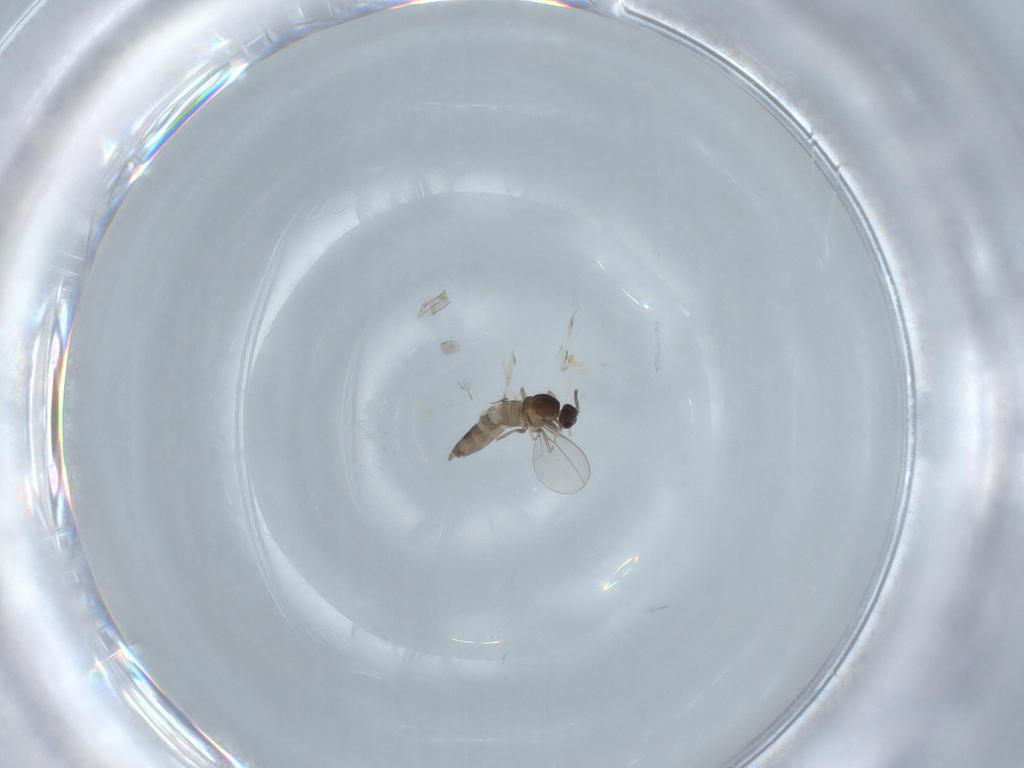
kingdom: Animalia
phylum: Arthropoda
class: Insecta
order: Diptera
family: Cecidomyiidae
